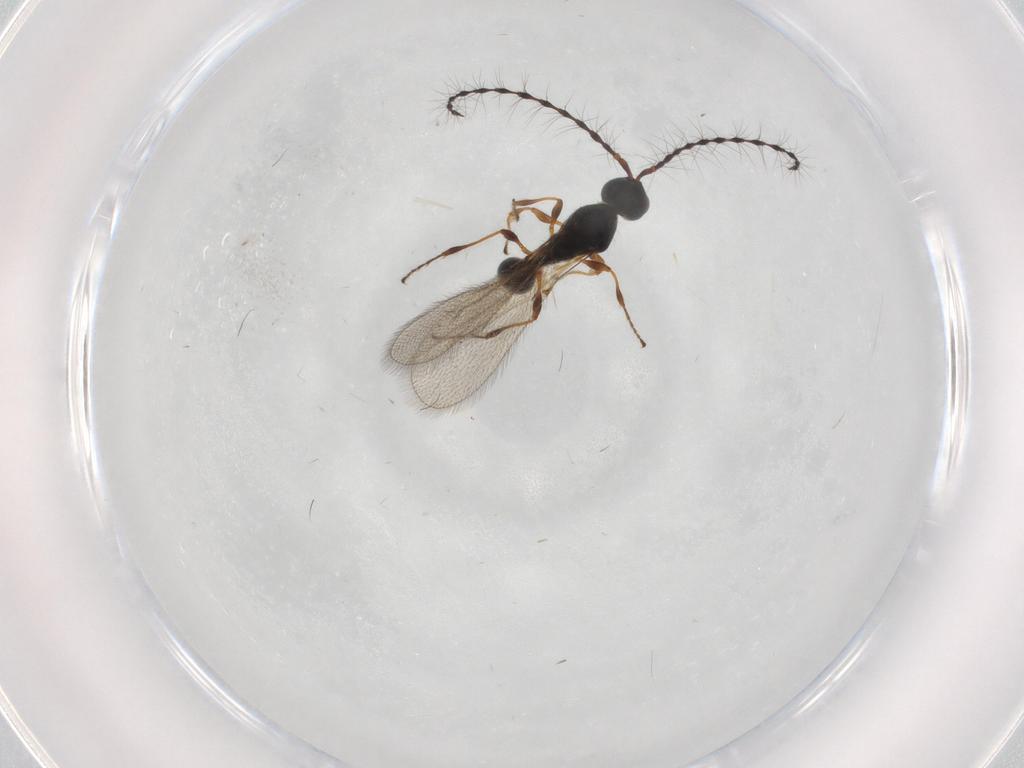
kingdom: Animalia
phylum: Arthropoda
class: Insecta
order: Hymenoptera
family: Diapriidae
